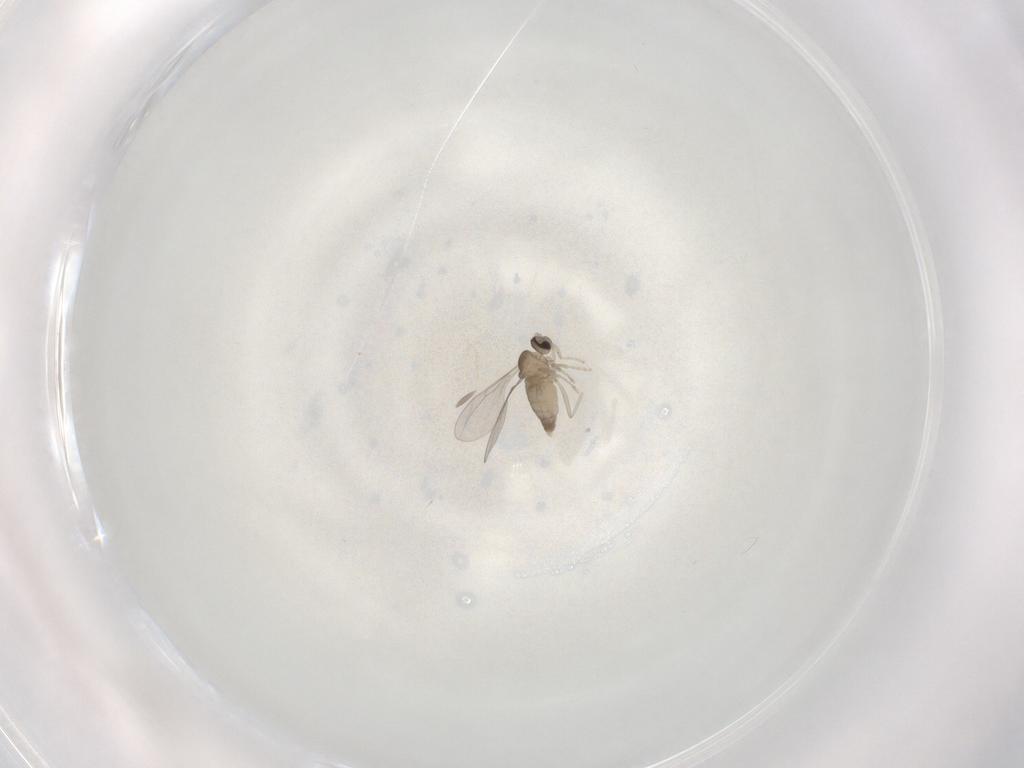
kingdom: Animalia
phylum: Arthropoda
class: Insecta
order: Diptera
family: Cecidomyiidae
